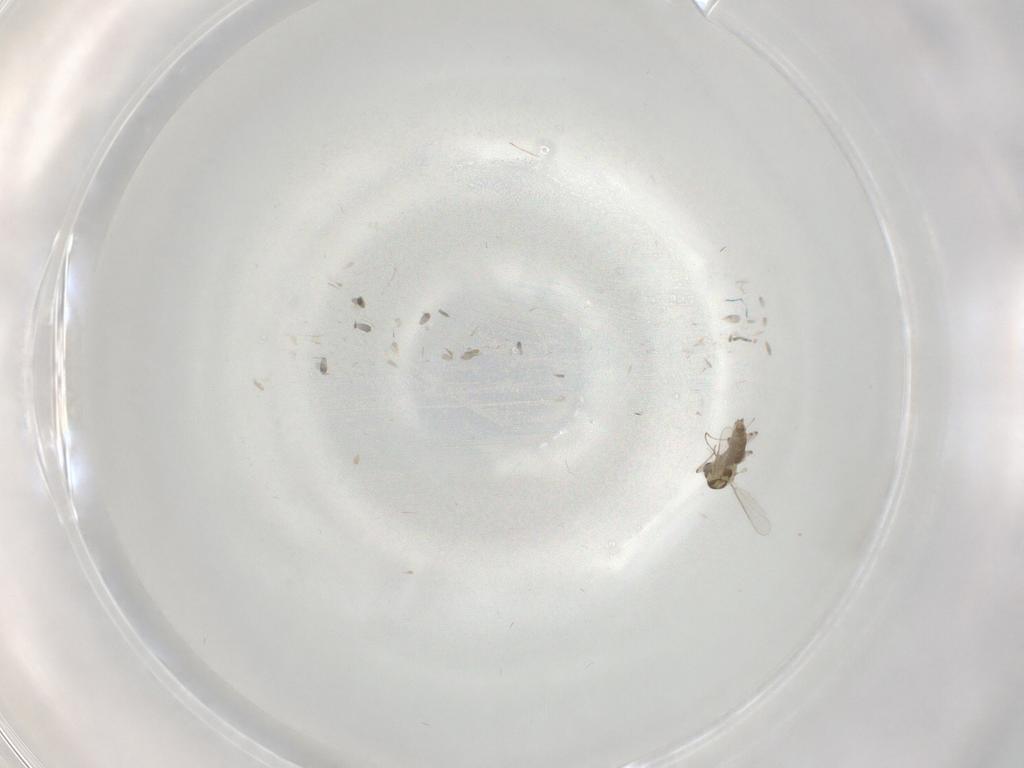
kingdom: Animalia
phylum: Arthropoda
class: Insecta
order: Diptera
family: Chironomidae
